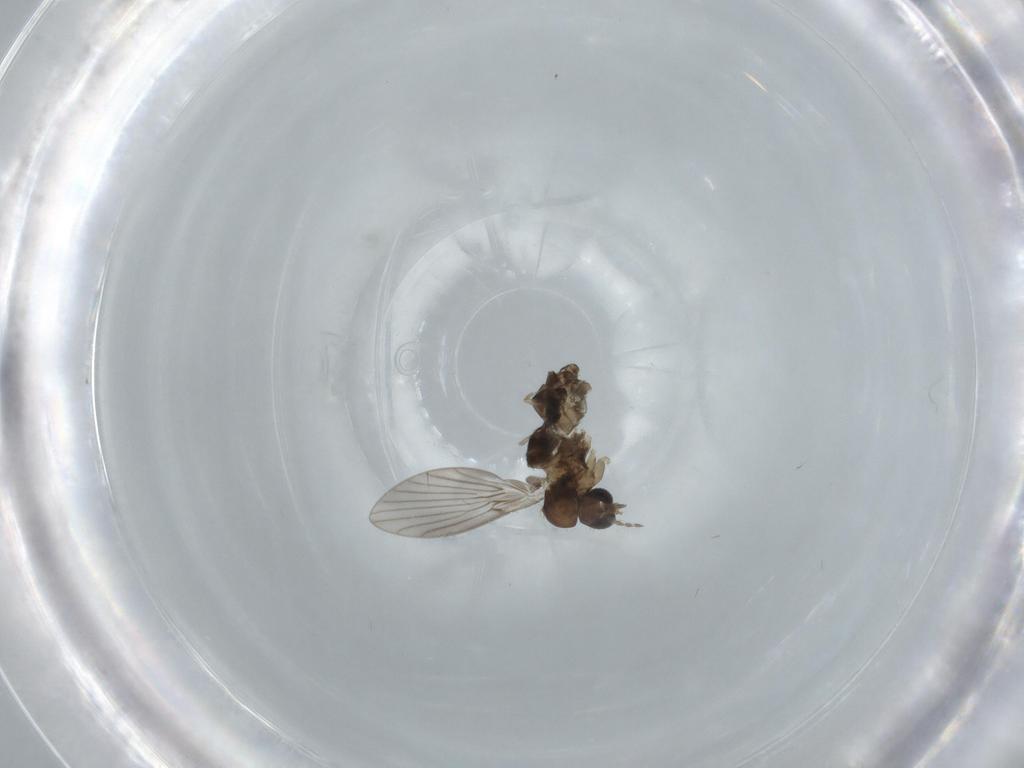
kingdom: Animalia
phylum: Arthropoda
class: Insecta
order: Diptera
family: Psychodidae
